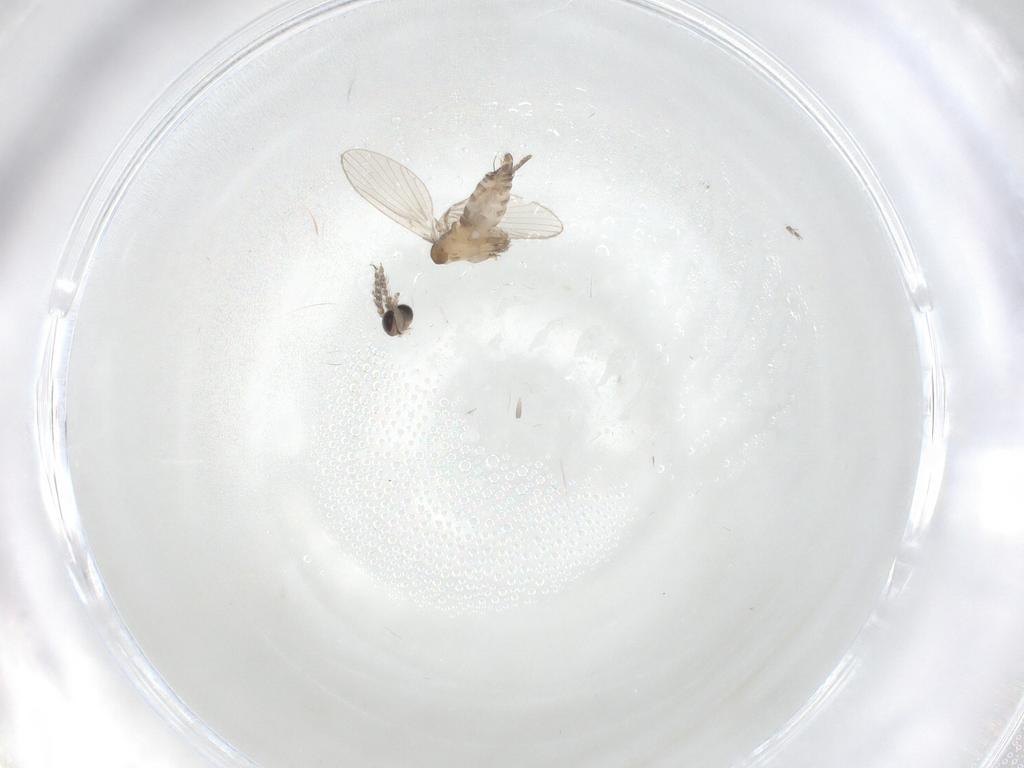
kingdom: Animalia
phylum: Arthropoda
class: Insecta
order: Diptera
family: Psychodidae
